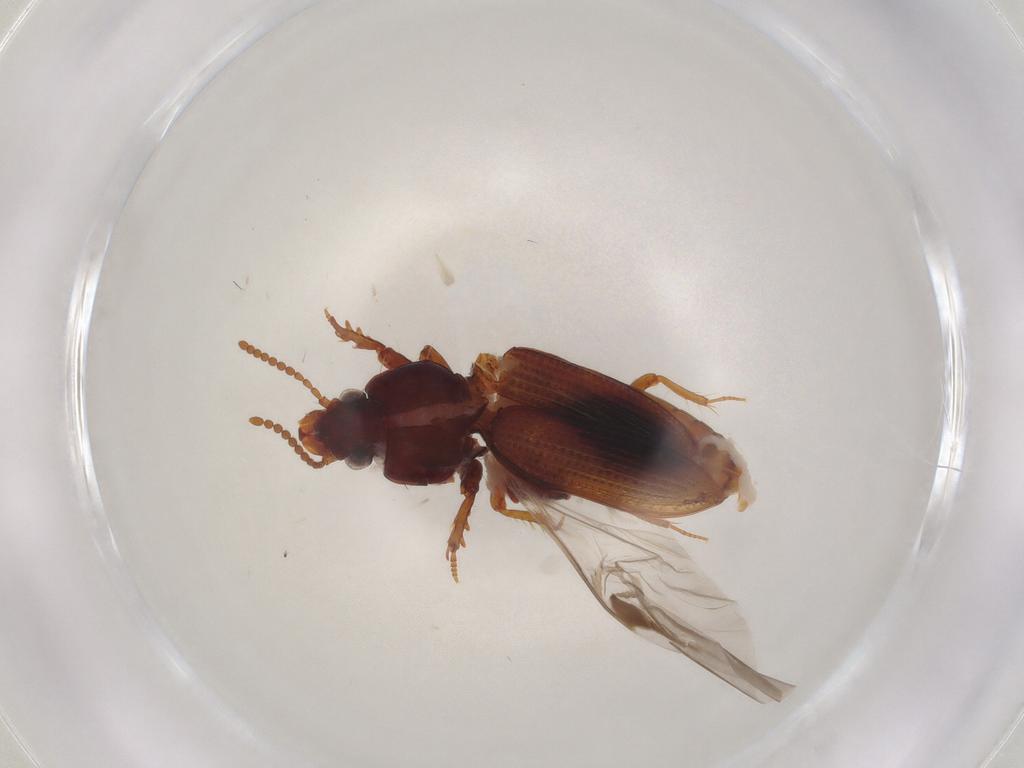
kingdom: Animalia
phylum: Arthropoda
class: Insecta
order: Coleoptera
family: Carabidae
